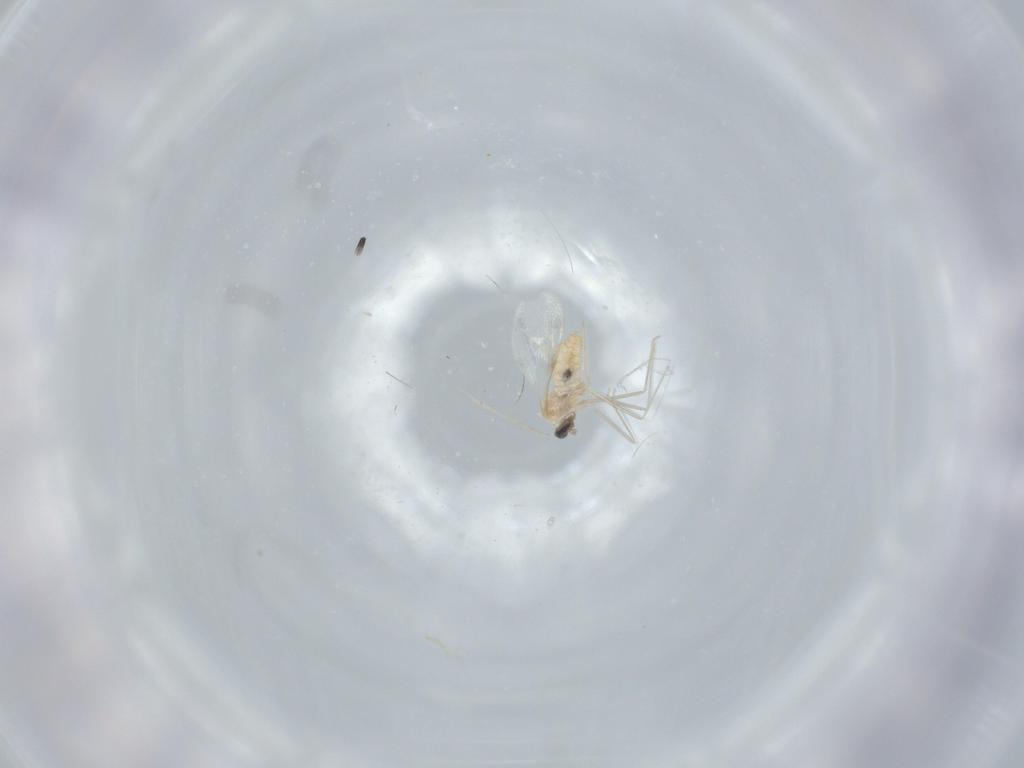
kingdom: Animalia
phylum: Arthropoda
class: Insecta
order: Diptera
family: Cecidomyiidae
